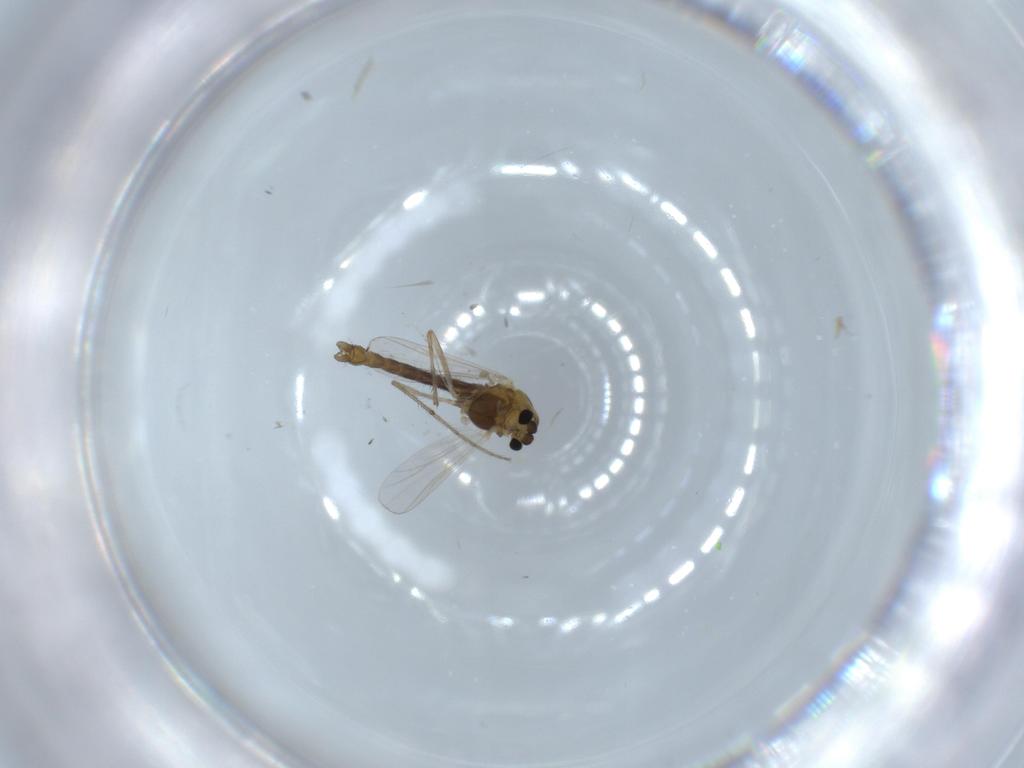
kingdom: Animalia
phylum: Arthropoda
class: Insecta
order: Diptera
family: Chironomidae
